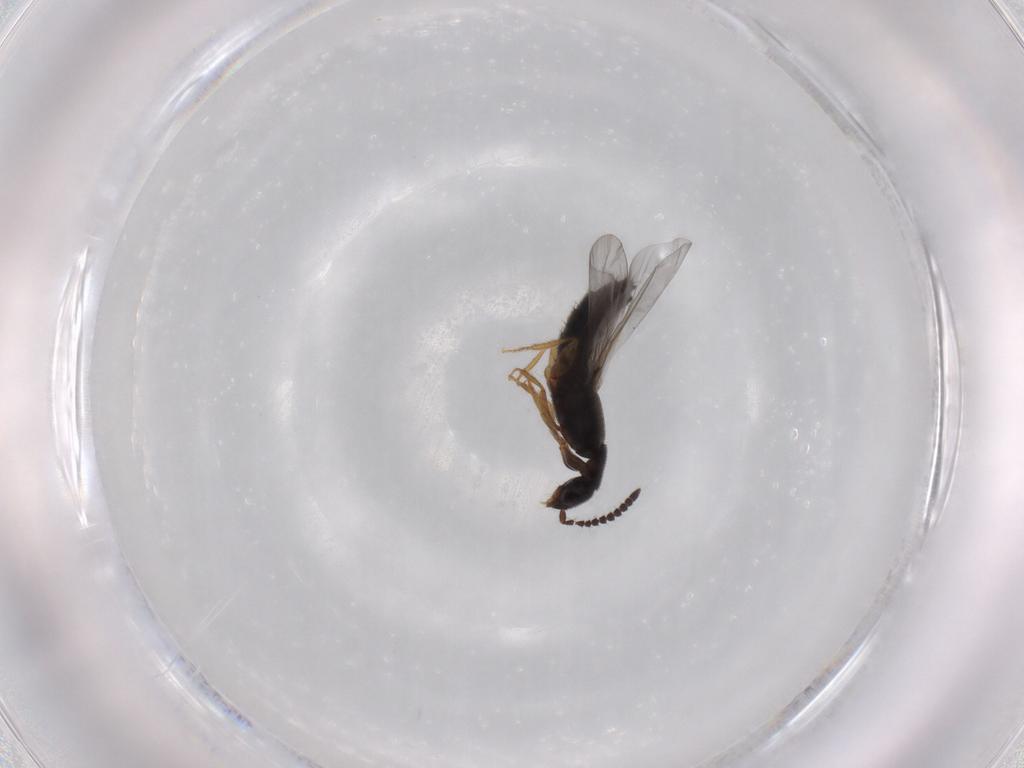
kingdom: Animalia
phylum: Arthropoda
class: Insecta
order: Coleoptera
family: Staphylinidae
